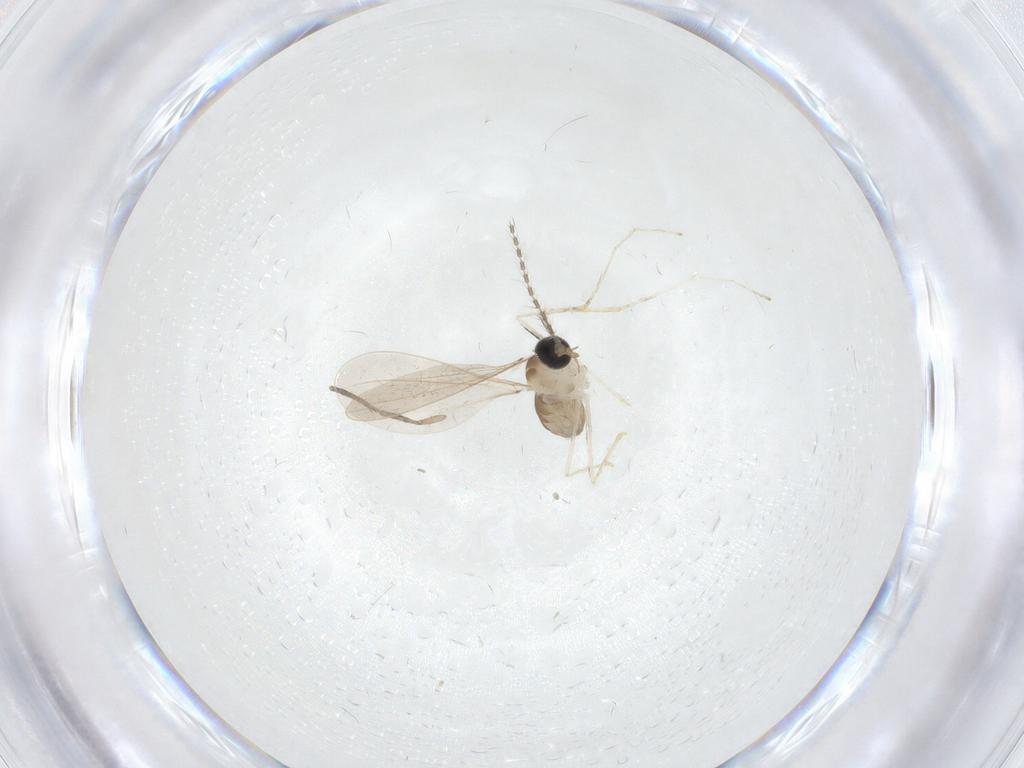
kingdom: Animalia
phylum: Arthropoda
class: Insecta
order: Diptera
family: Cecidomyiidae
